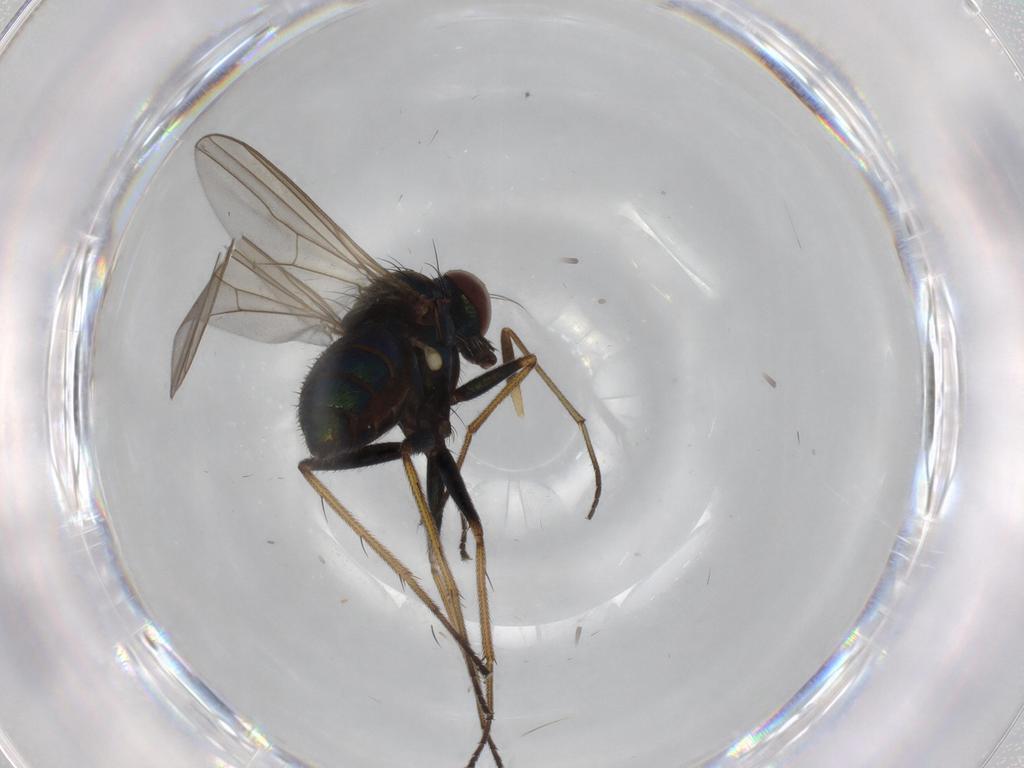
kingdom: Animalia
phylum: Arthropoda
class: Insecta
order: Diptera
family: Dolichopodidae
